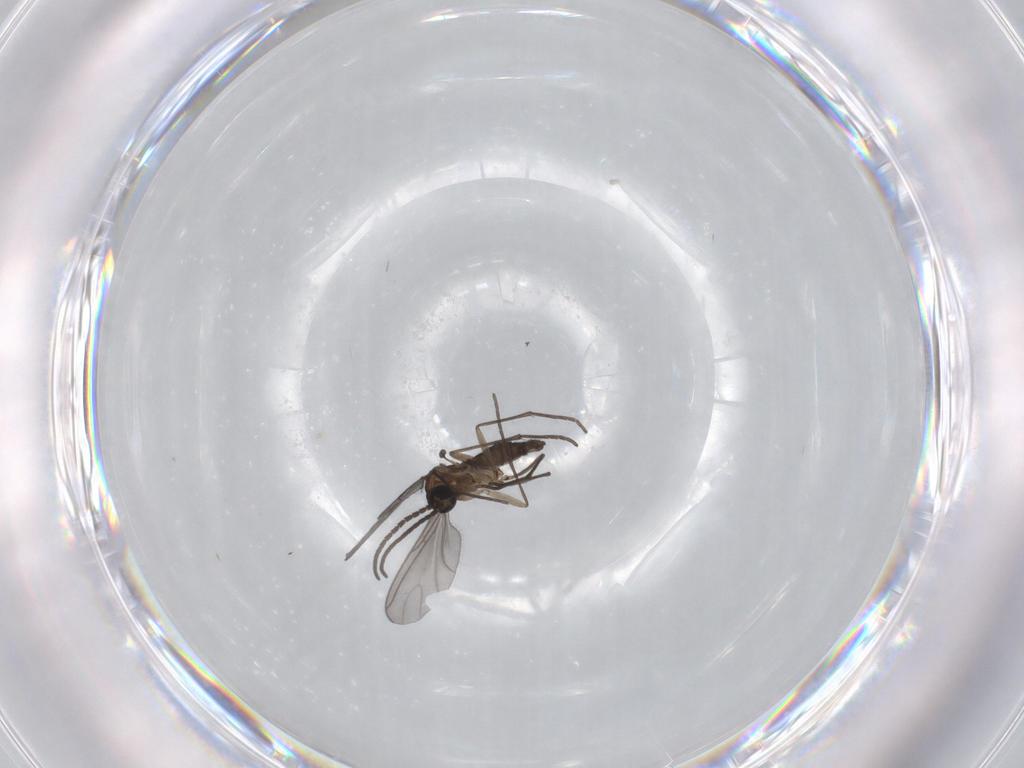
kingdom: Animalia
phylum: Arthropoda
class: Insecta
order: Diptera
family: Sciaridae
